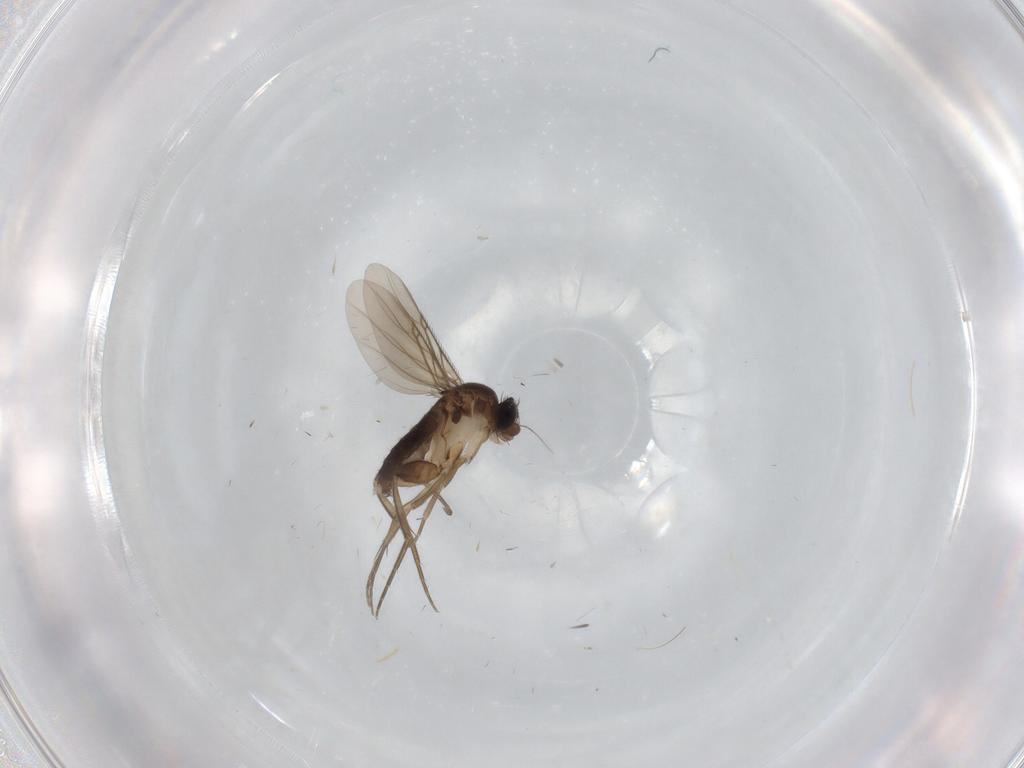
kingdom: Animalia
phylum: Arthropoda
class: Insecta
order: Diptera
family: Phoridae
